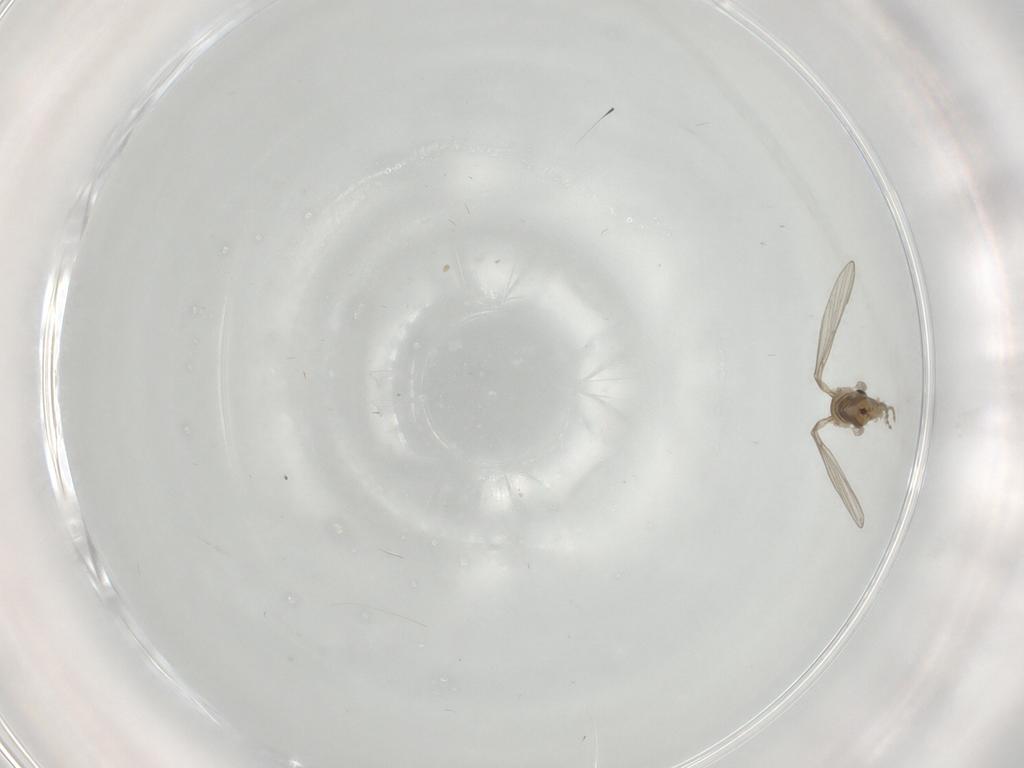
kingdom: Animalia
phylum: Arthropoda
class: Insecta
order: Diptera
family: Psychodidae
